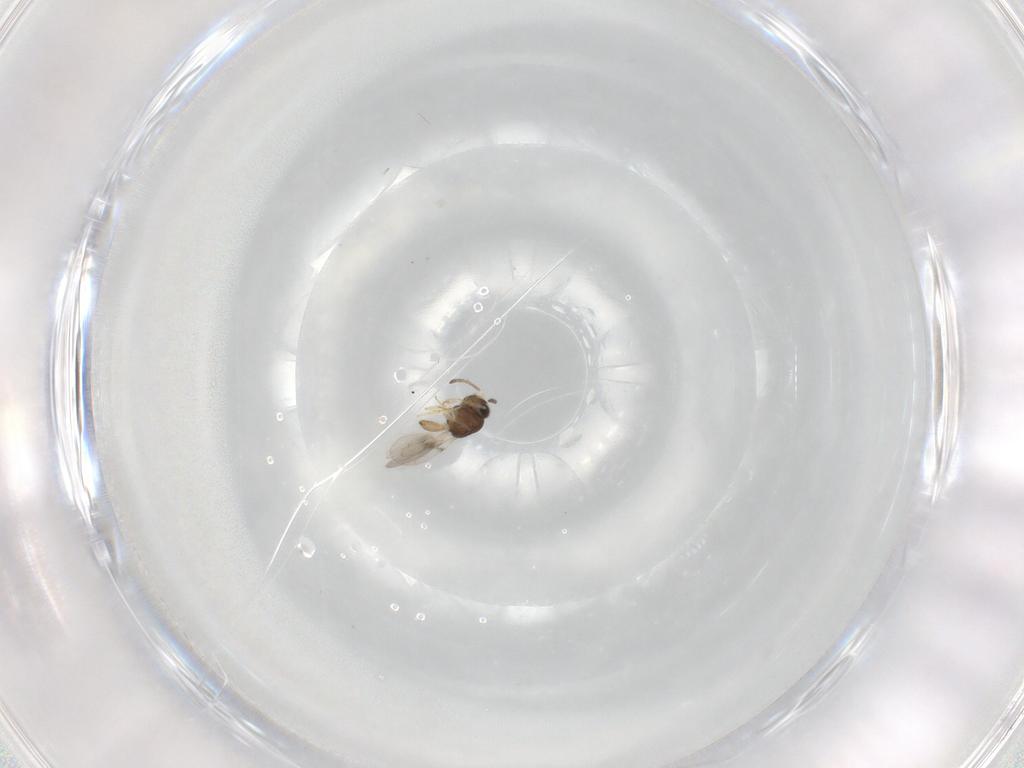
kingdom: Animalia
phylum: Arthropoda
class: Insecta
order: Hymenoptera
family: Scelionidae
